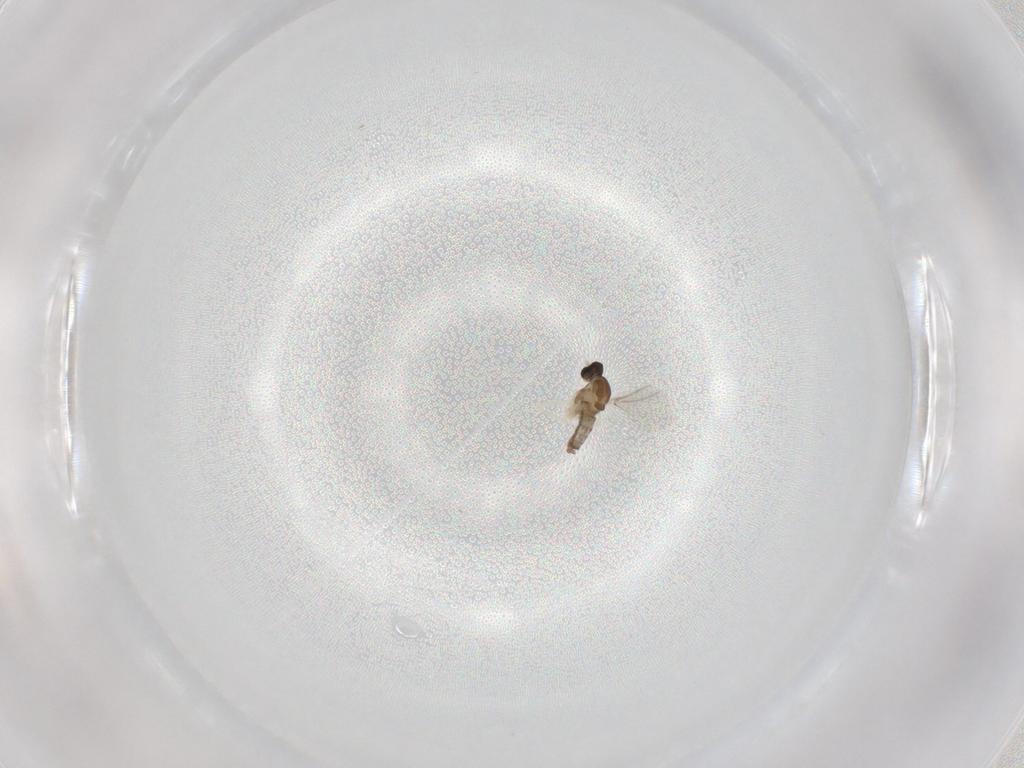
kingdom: Animalia
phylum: Arthropoda
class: Insecta
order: Diptera
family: Cecidomyiidae
